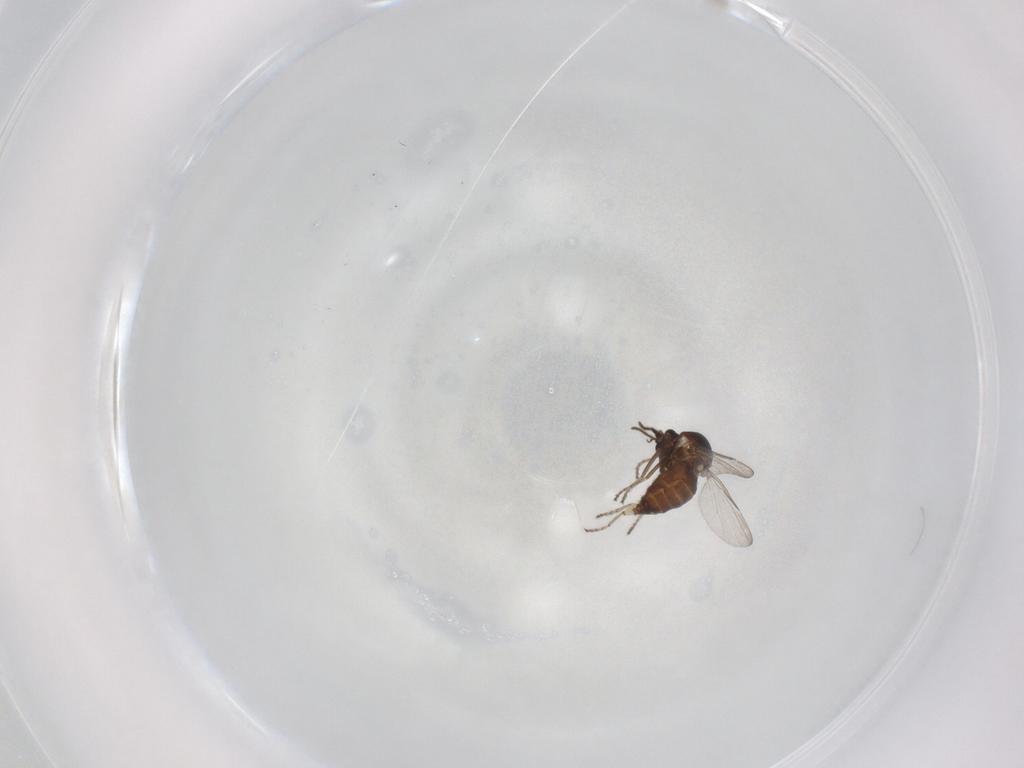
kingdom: Animalia
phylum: Arthropoda
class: Insecta
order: Diptera
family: Ceratopogonidae
